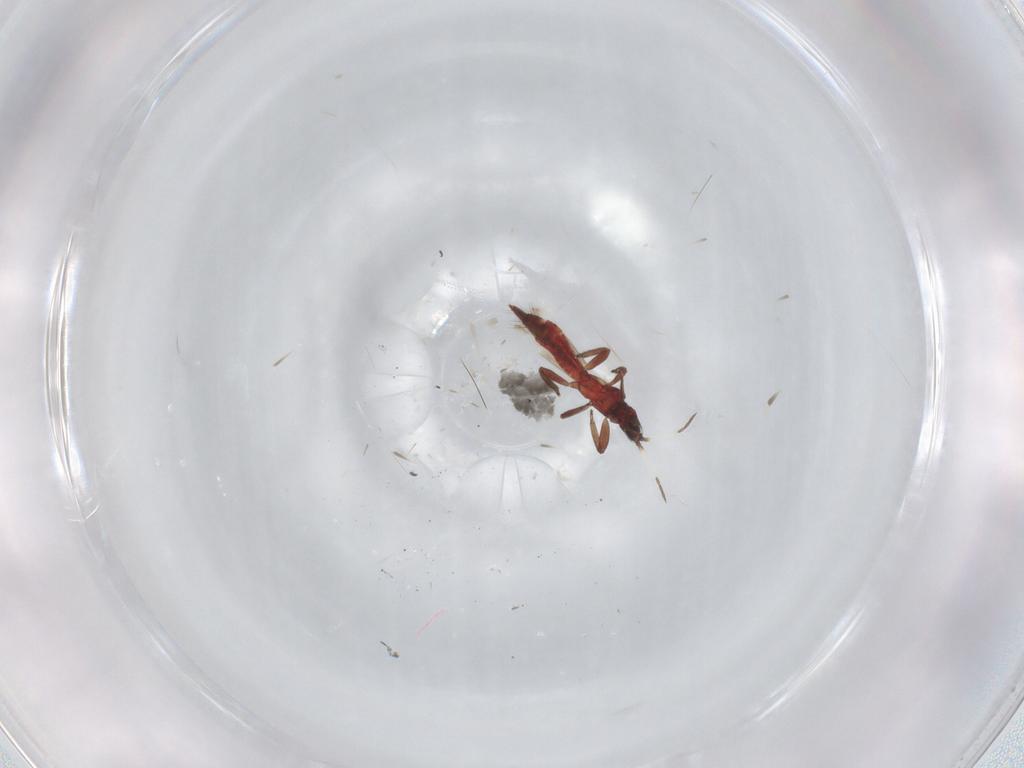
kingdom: Animalia
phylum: Arthropoda
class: Insecta
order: Thysanoptera
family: Aeolothripidae
